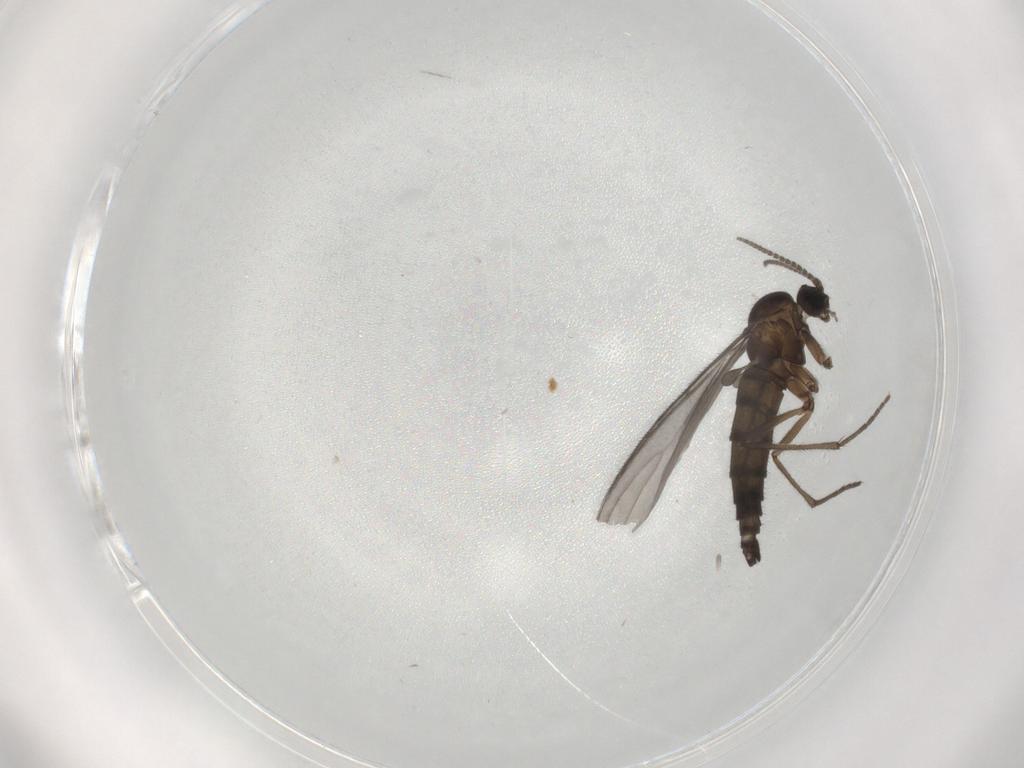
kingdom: Animalia
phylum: Arthropoda
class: Insecta
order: Diptera
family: Sciaridae
